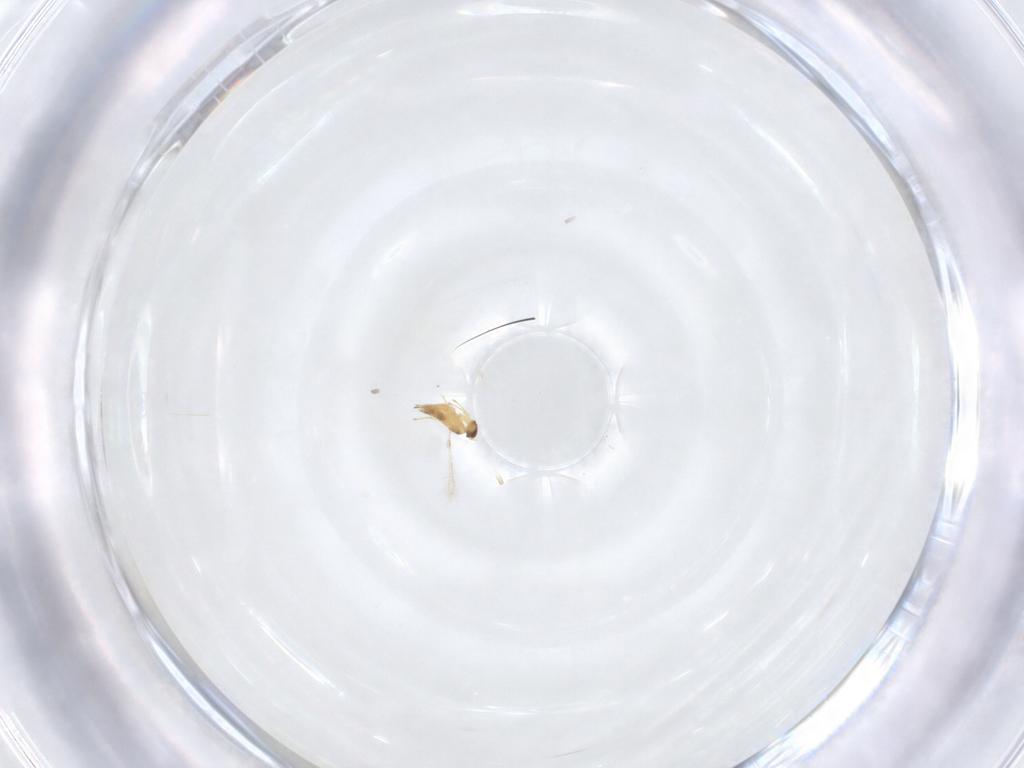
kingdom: Animalia
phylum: Arthropoda
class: Insecta
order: Hymenoptera
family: Mymaridae
